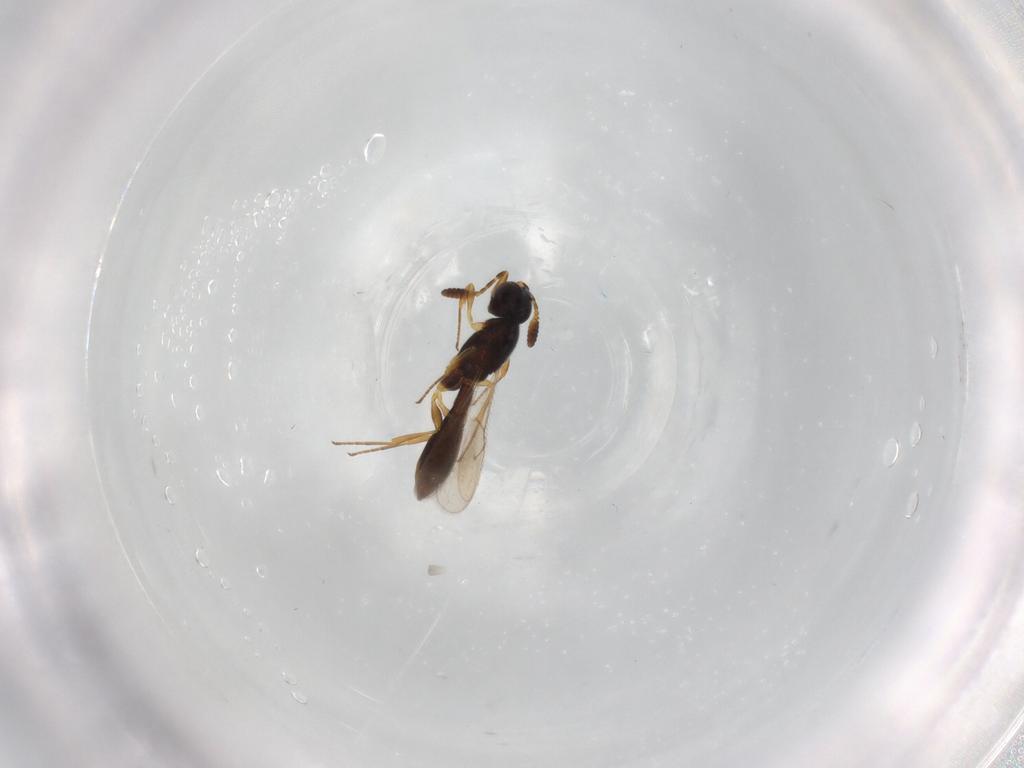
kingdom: Animalia
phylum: Arthropoda
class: Insecta
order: Hymenoptera
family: Scelionidae
